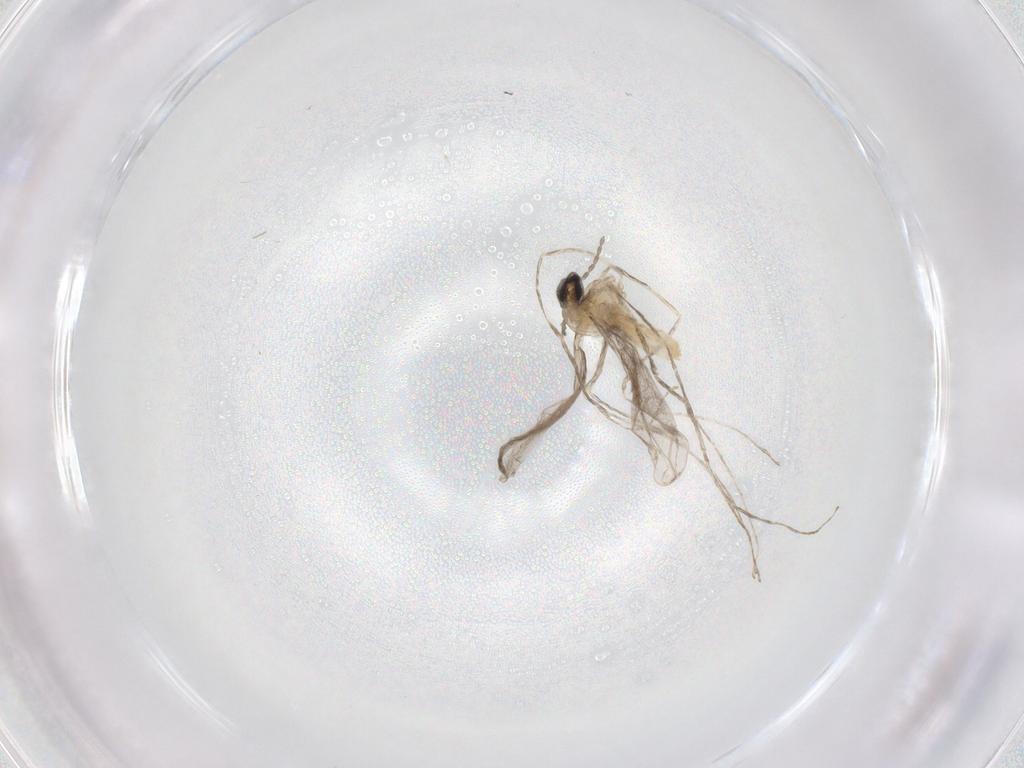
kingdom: Animalia
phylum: Arthropoda
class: Insecta
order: Diptera
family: Cecidomyiidae
